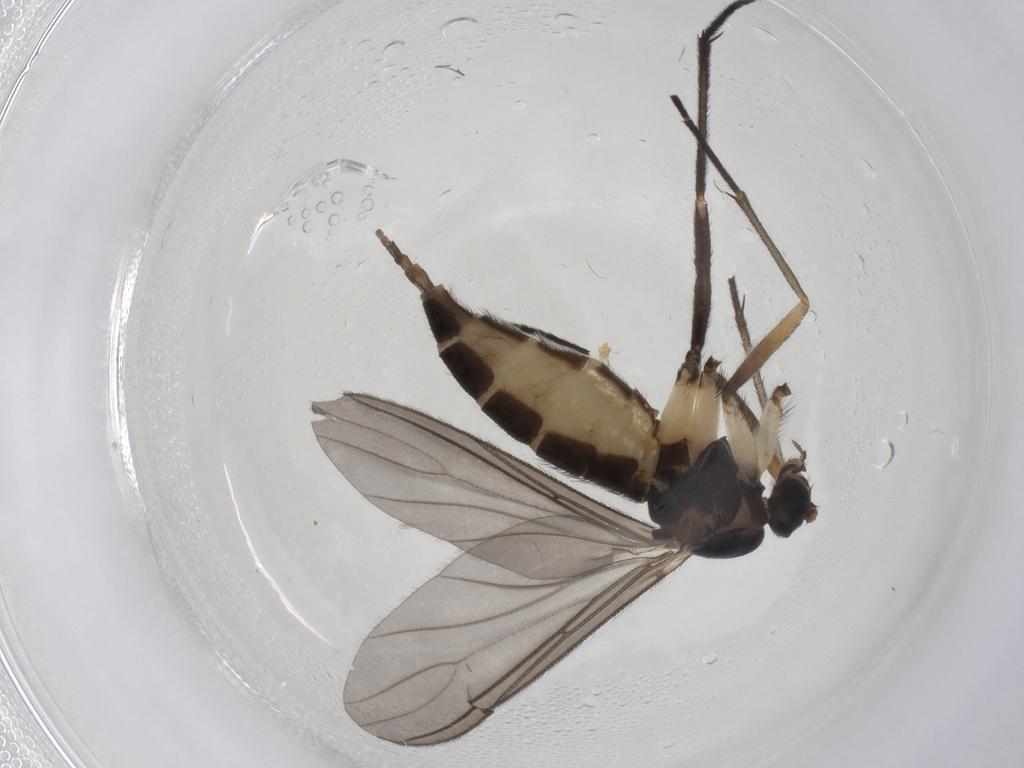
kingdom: Animalia
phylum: Arthropoda
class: Insecta
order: Diptera
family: Sciaridae
